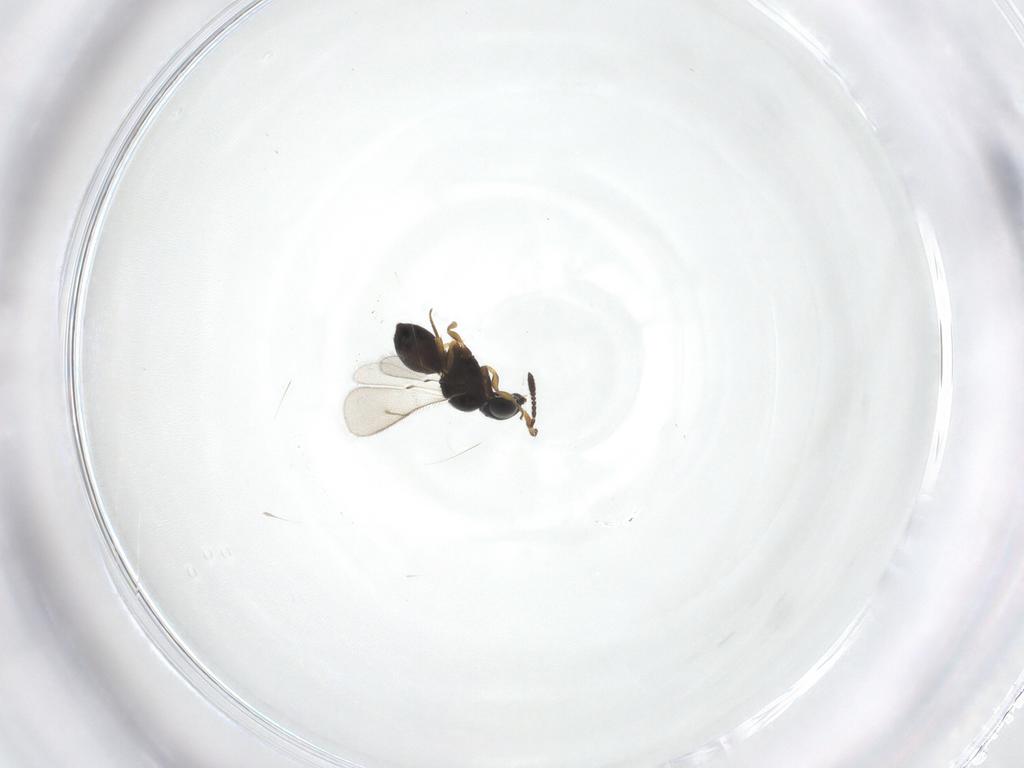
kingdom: Animalia
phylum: Arthropoda
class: Insecta
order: Hymenoptera
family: Scelionidae
